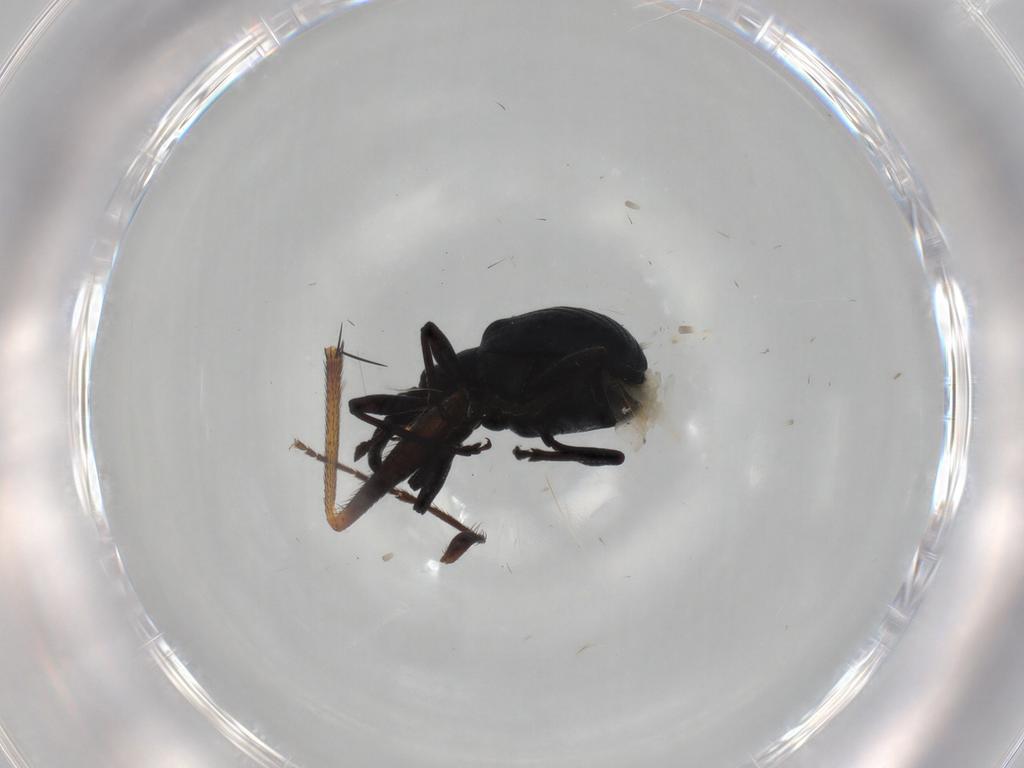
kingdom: Animalia
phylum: Arthropoda
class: Insecta
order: Coleoptera
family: Apionidae
